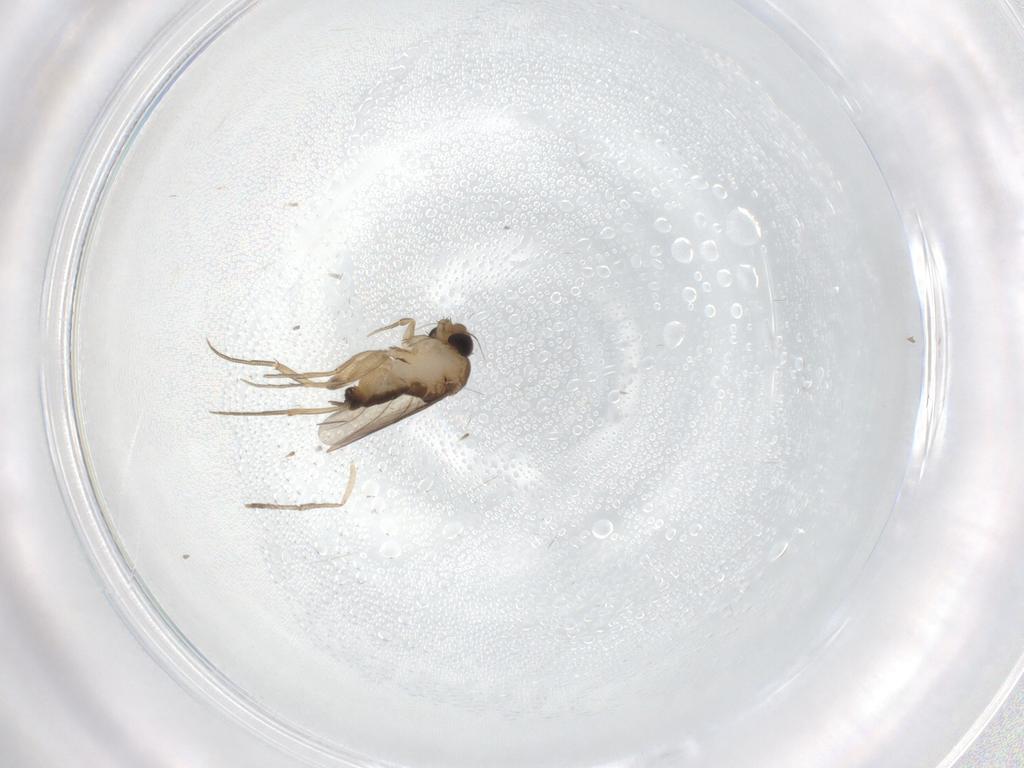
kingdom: Animalia
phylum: Arthropoda
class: Insecta
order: Diptera
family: Phoridae
